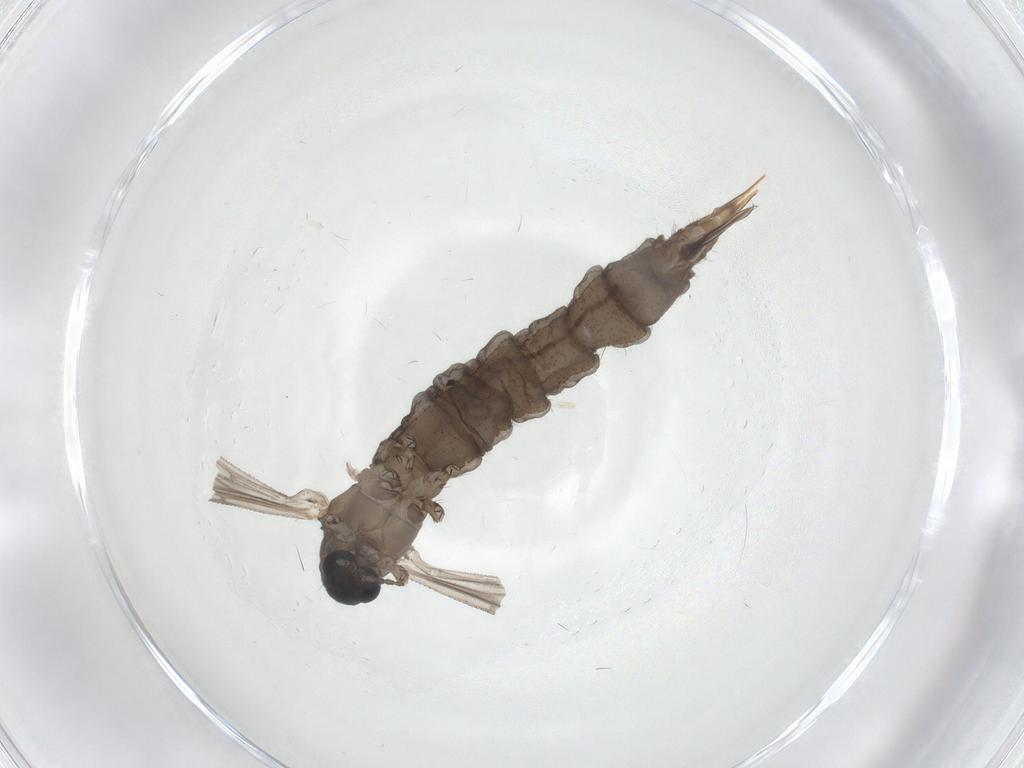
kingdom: Animalia
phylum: Arthropoda
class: Insecta
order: Diptera
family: Limoniidae
